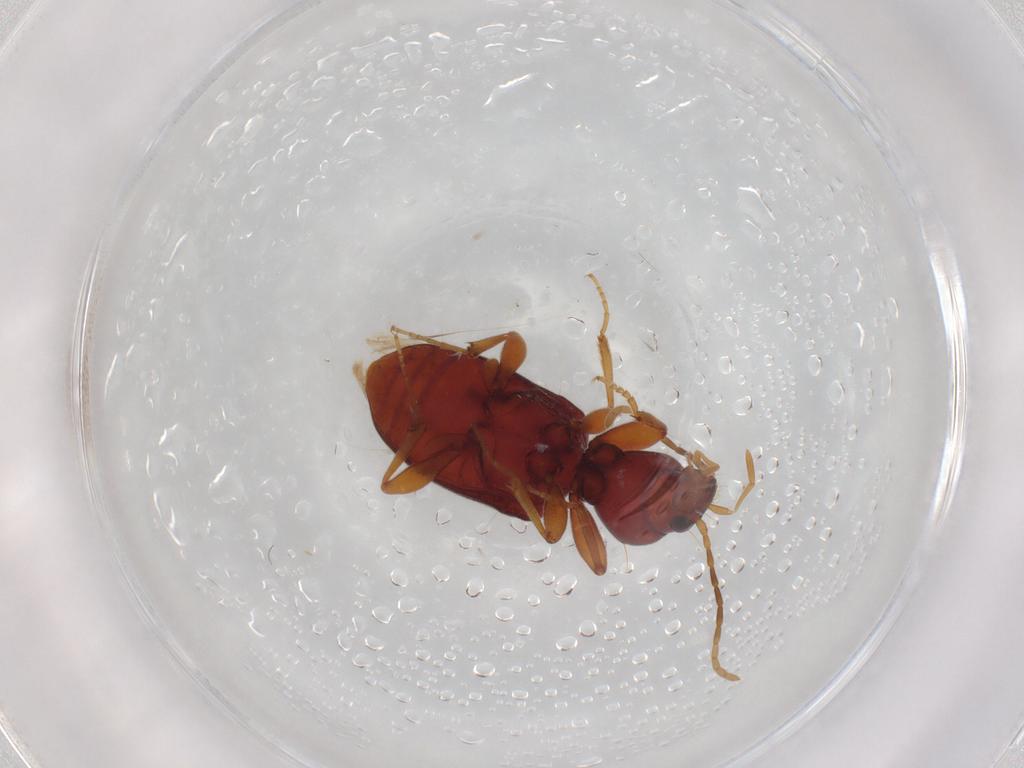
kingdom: Animalia
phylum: Arthropoda
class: Insecta
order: Coleoptera
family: Carabidae
